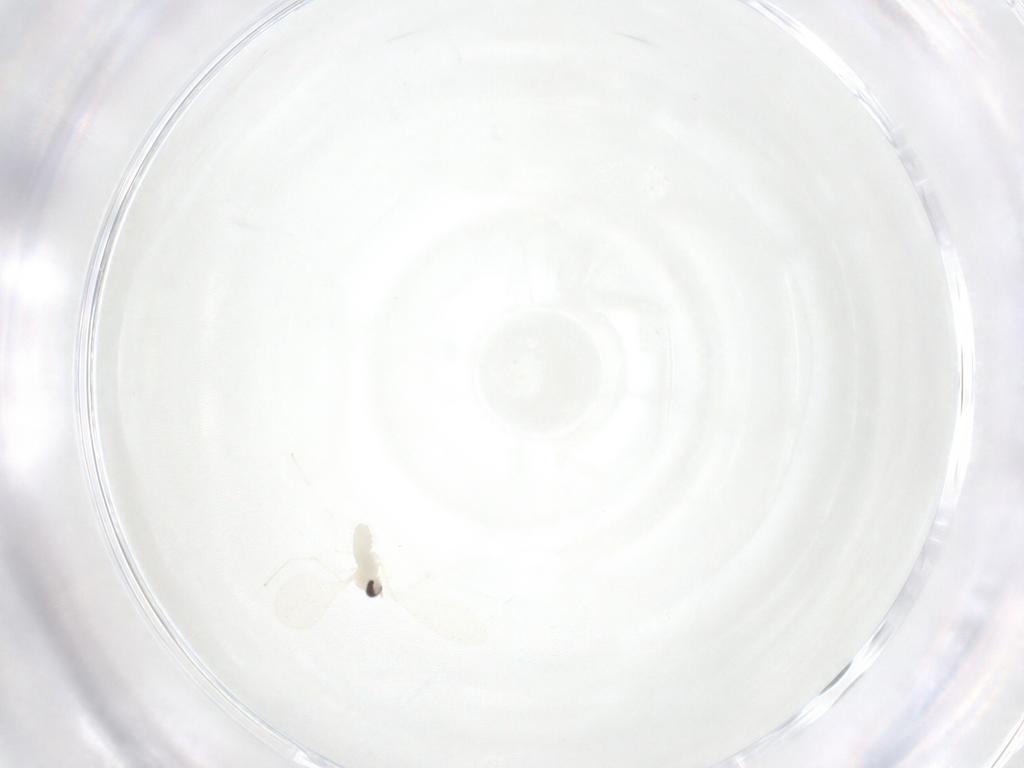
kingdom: Animalia
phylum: Arthropoda
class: Insecta
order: Diptera
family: Cecidomyiidae
